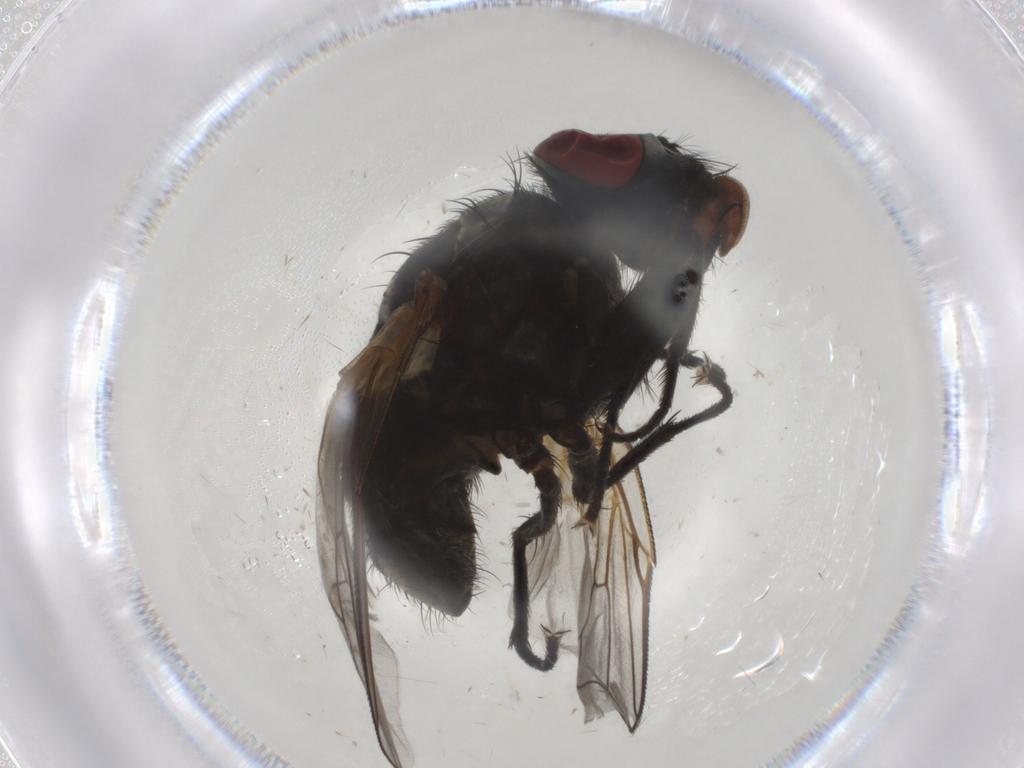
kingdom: Animalia
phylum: Arthropoda
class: Insecta
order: Diptera
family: Muscidae
